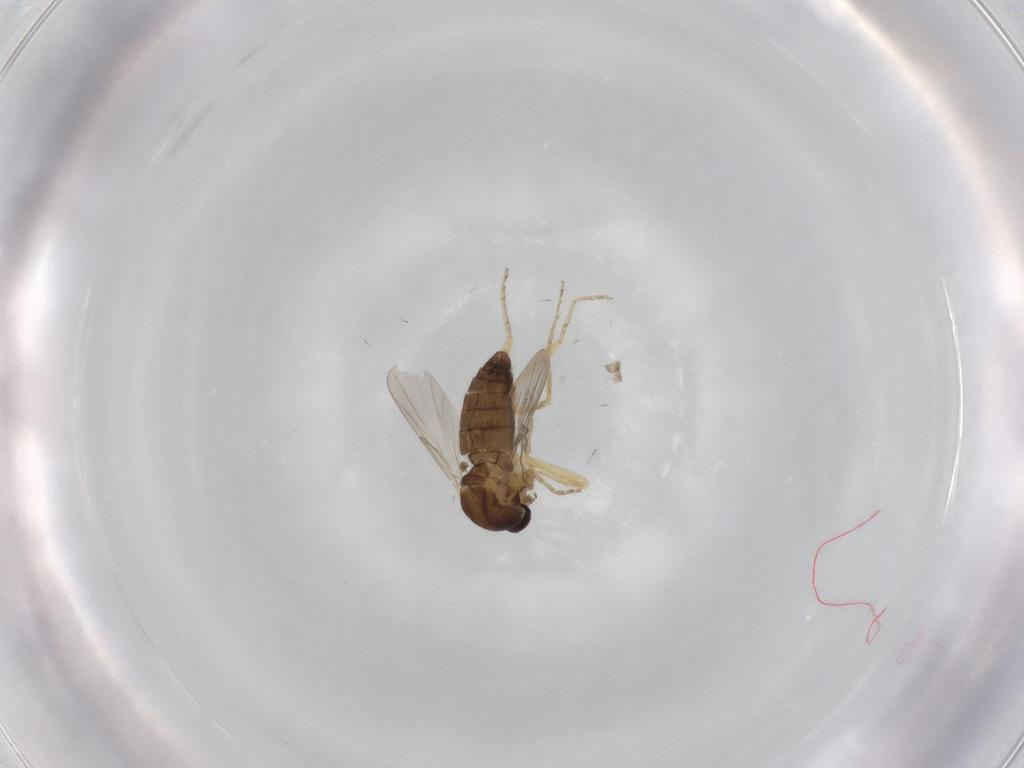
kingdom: Animalia
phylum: Arthropoda
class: Insecta
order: Diptera
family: Ceratopogonidae
